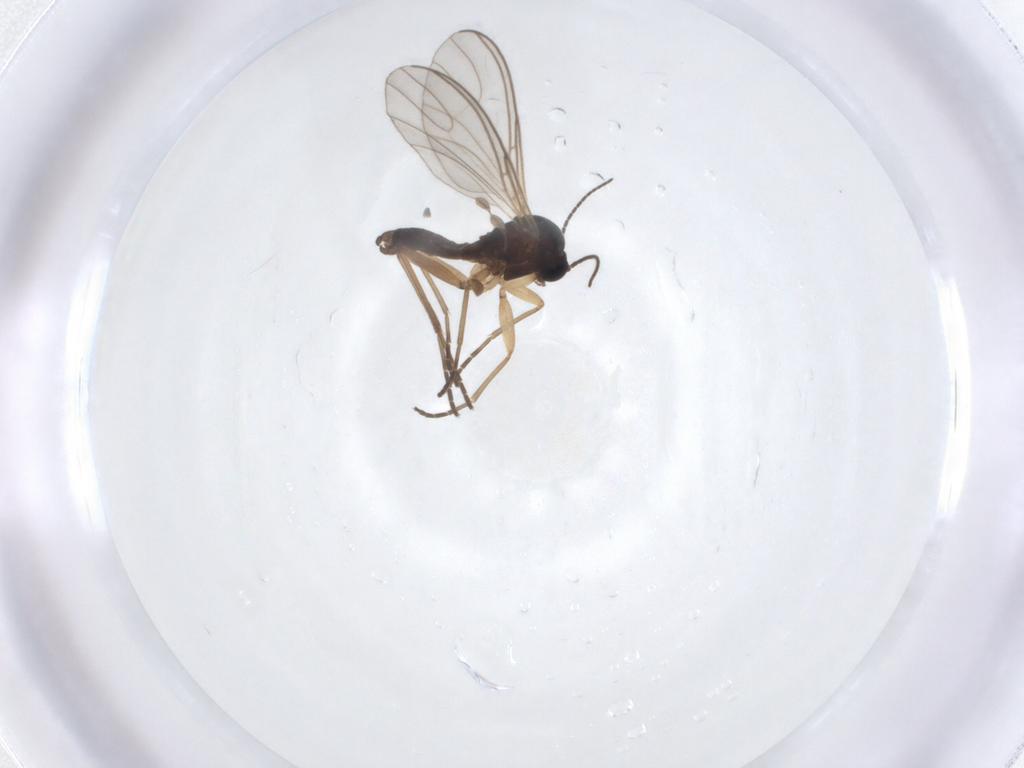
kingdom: Animalia
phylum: Arthropoda
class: Insecta
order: Diptera
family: Sciaridae
